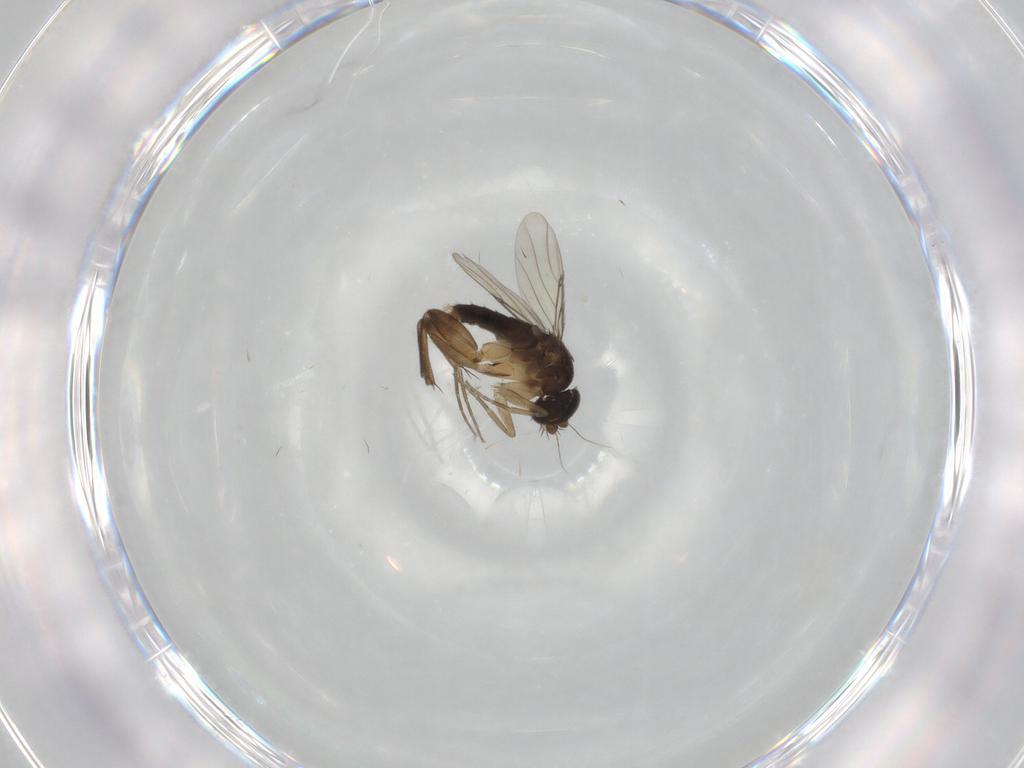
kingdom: Animalia
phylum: Arthropoda
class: Insecta
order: Diptera
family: Phoridae
